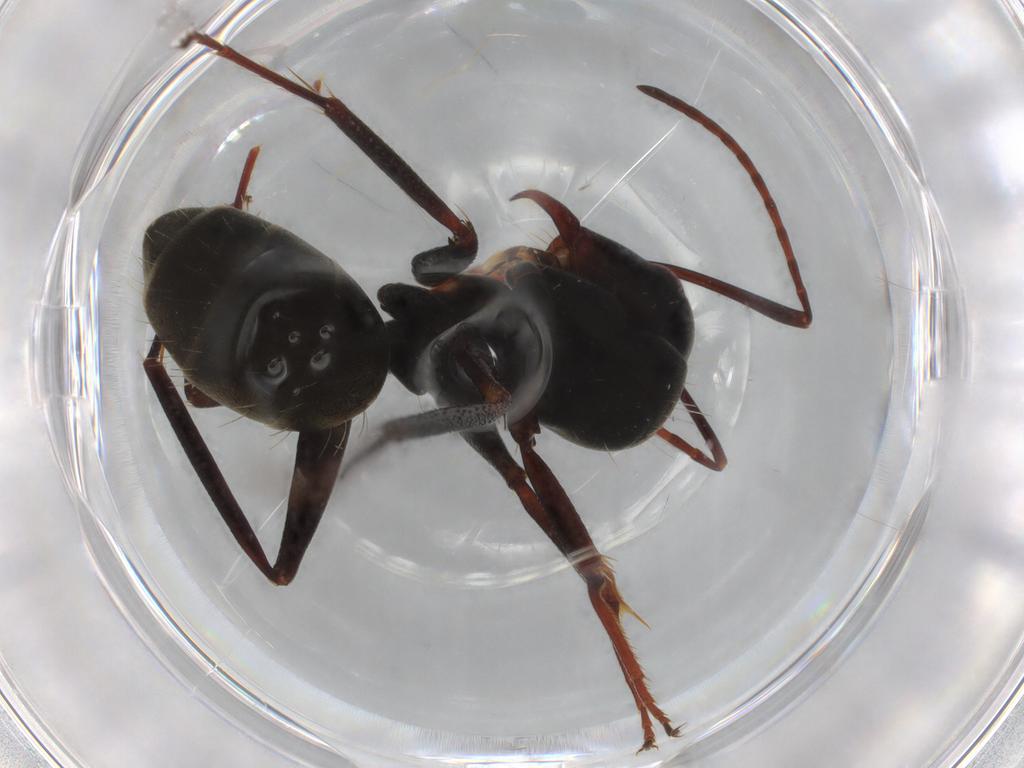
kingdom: Animalia
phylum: Arthropoda
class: Insecta
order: Hymenoptera
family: Formicidae
